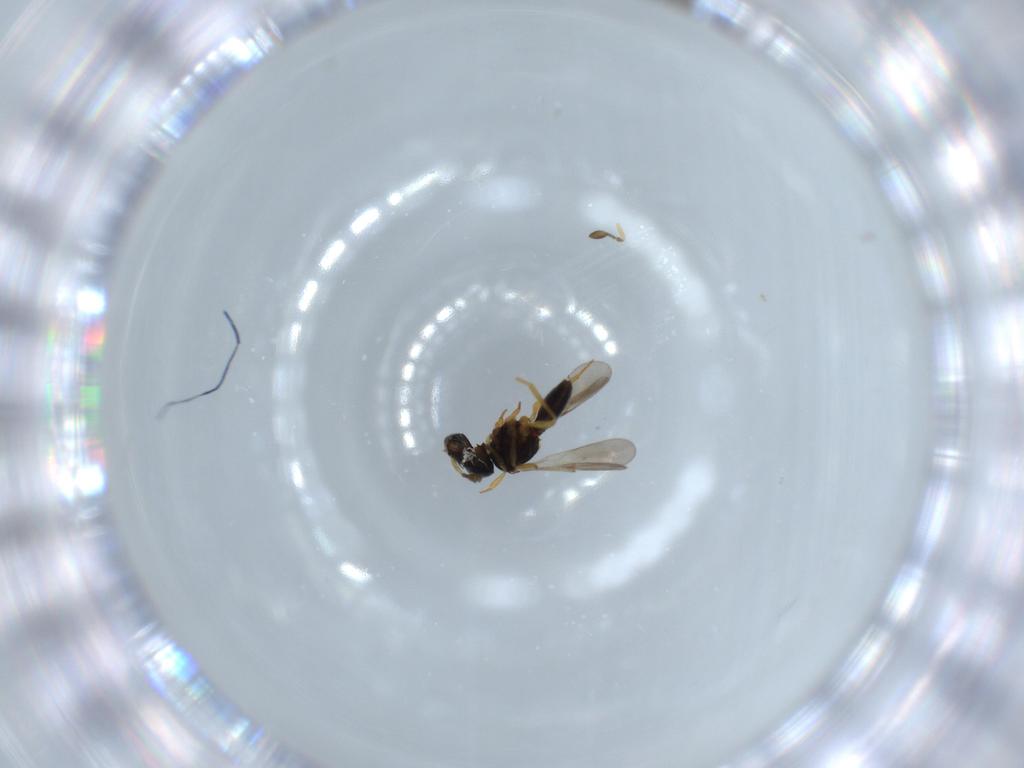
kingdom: Animalia
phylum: Arthropoda
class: Insecta
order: Hymenoptera
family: Scelionidae
